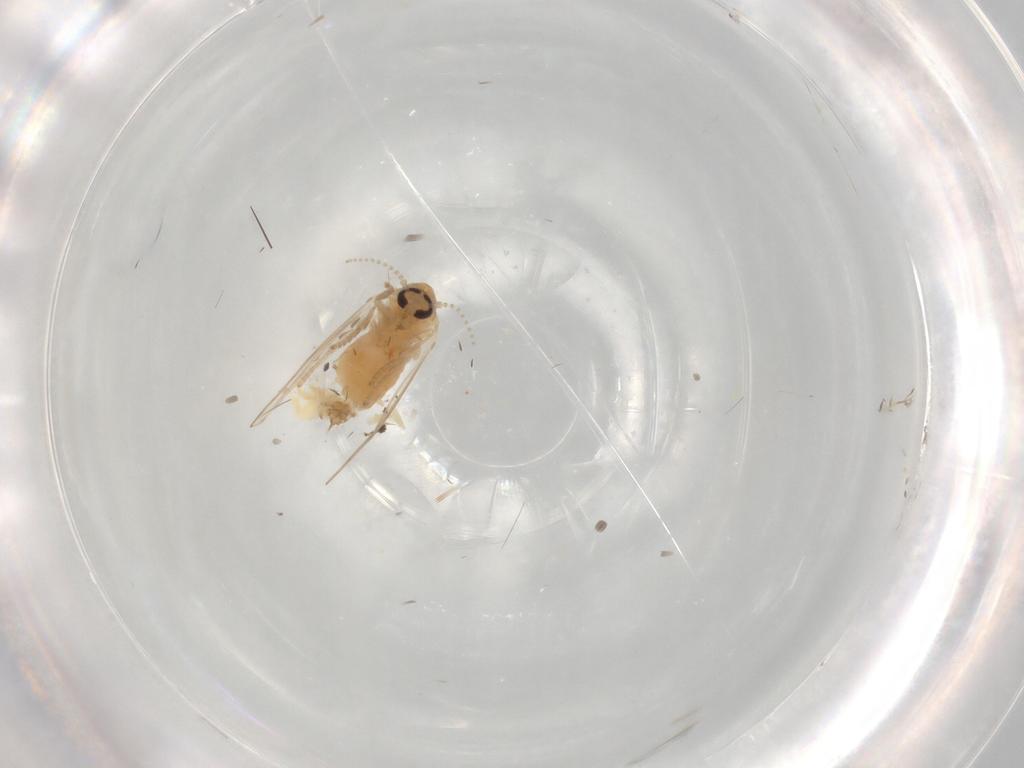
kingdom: Animalia
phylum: Arthropoda
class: Insecta
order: Diptera
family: Psychodidae
